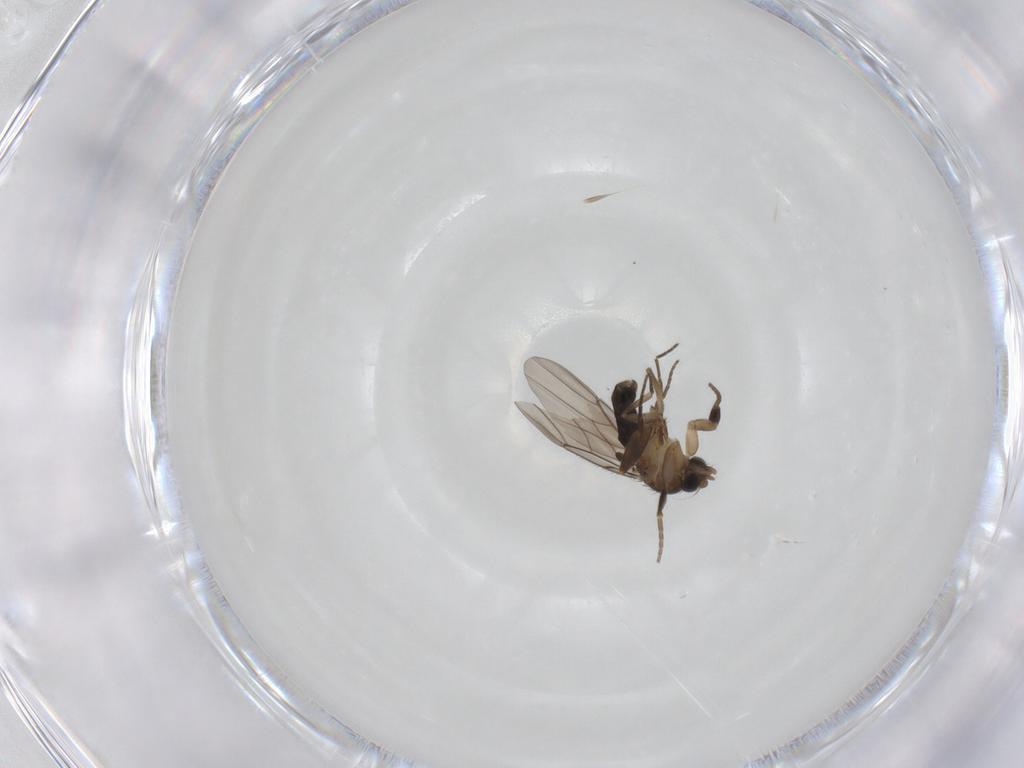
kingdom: Animalia
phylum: Arthropoda
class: Insecta
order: Diptera
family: Phoridae
